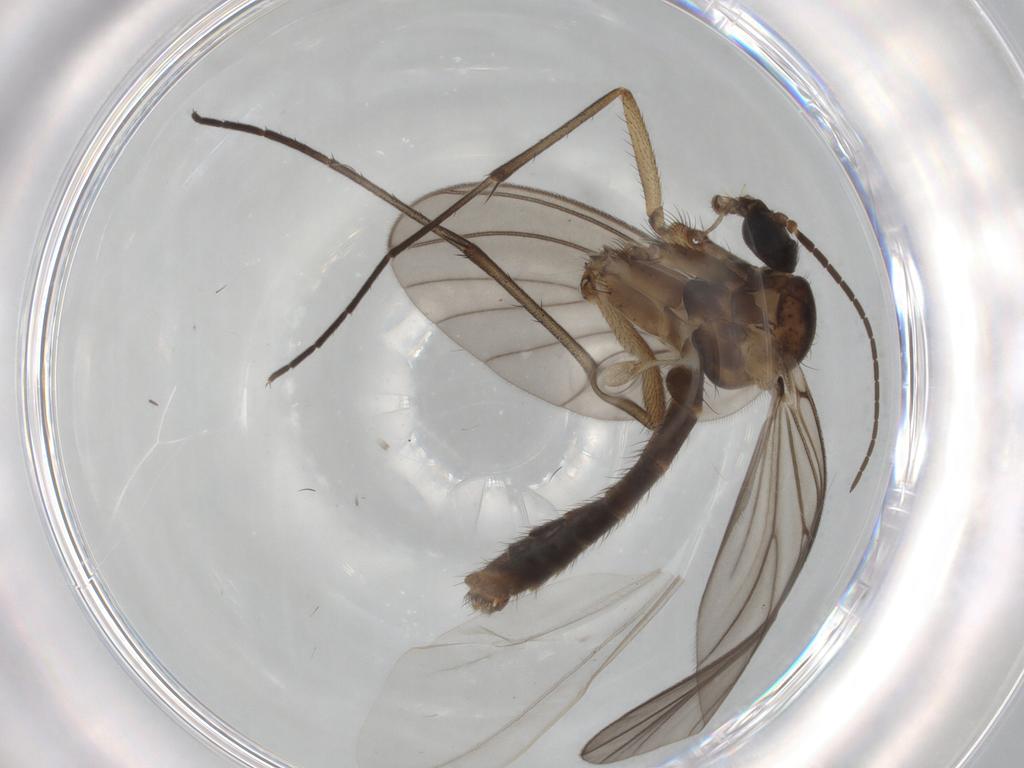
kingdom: Animalia
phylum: Arthropoda
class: Insecta
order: Diptera
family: Mycetophilidae
